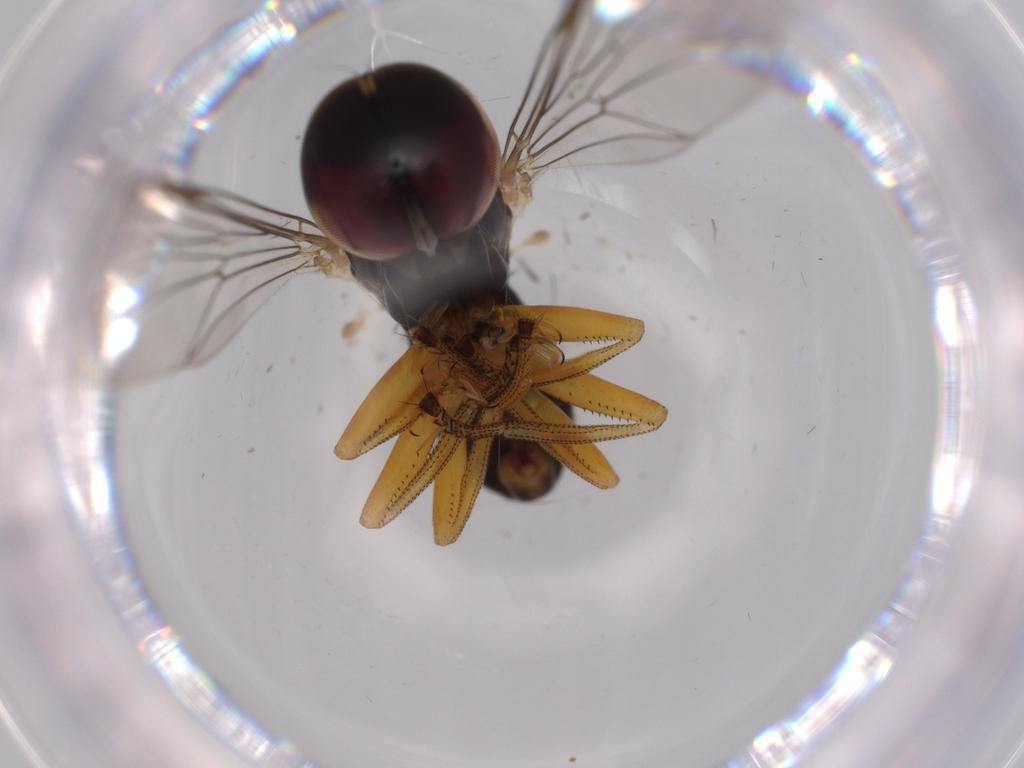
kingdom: Animalia
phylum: Arthropoda
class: Insecta
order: Diptera
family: Pipunculidae
